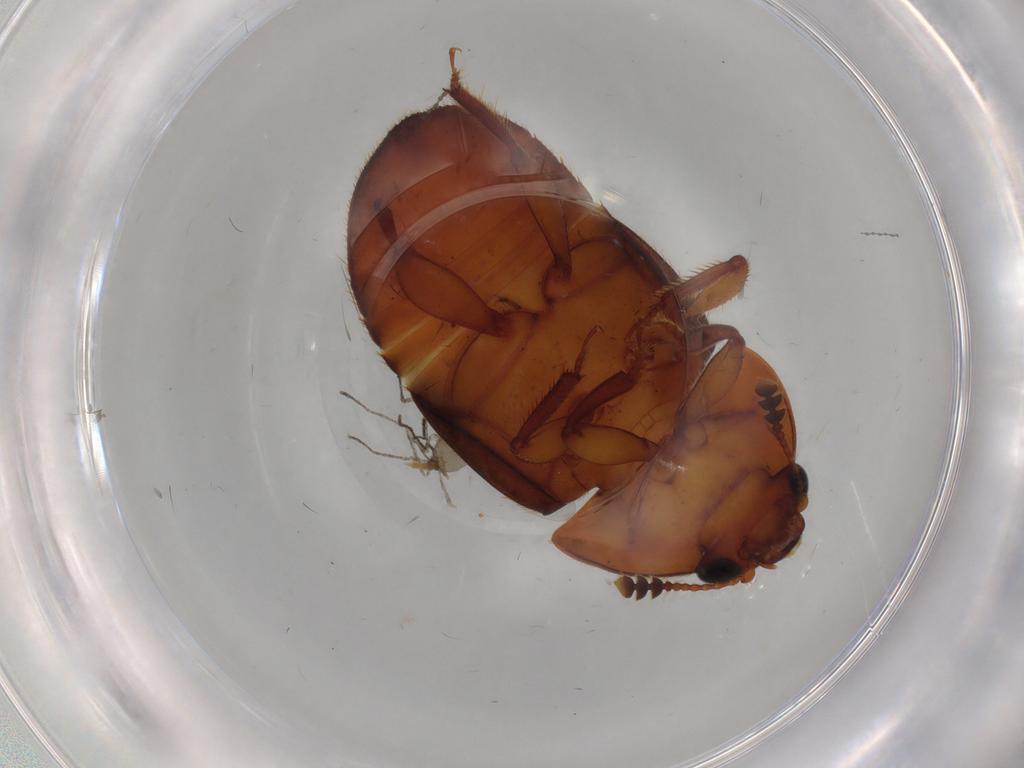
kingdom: Animalia
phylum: Arthropoda
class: Insecta
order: Coleoptera
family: Nitidulidae
